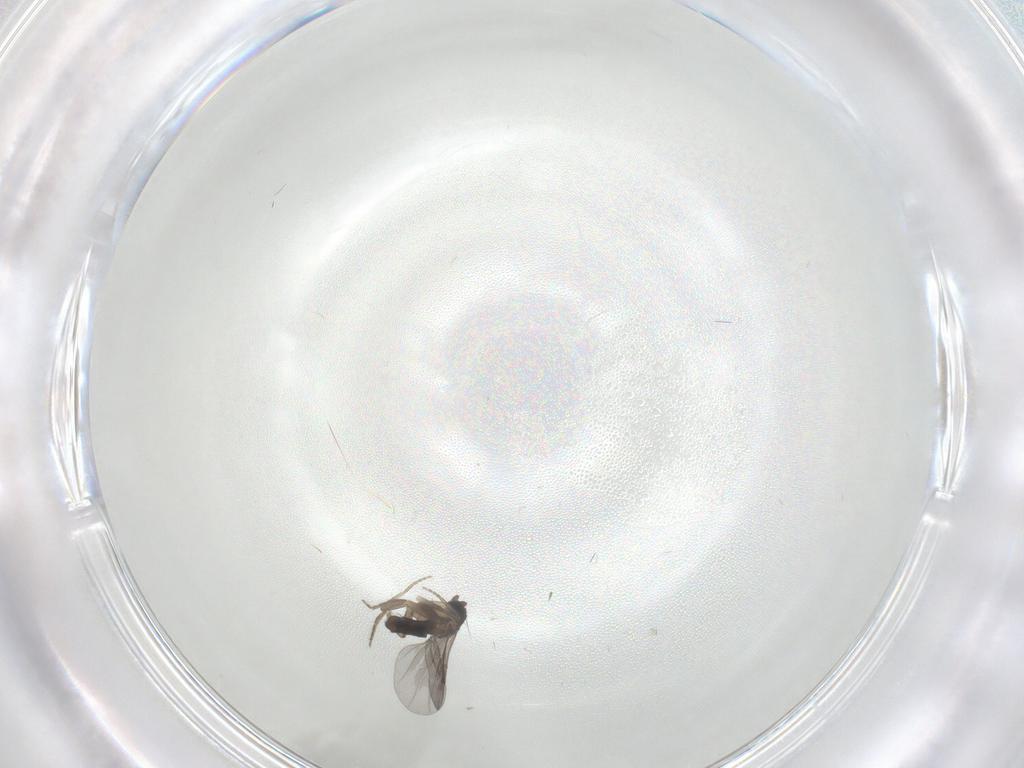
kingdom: Animalia
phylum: Arthropoda
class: Insecta
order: Diptera
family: Phoridae
